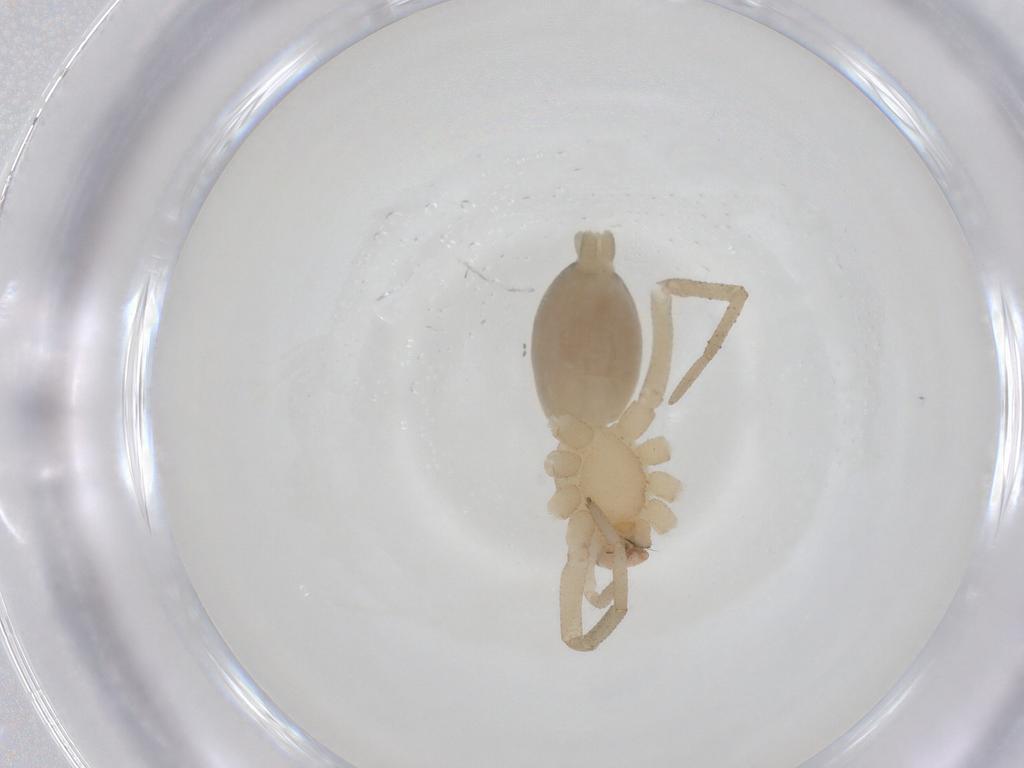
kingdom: Animalia
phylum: Arthropoda
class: Arachnida
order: Araneae
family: Gnaphosidae
